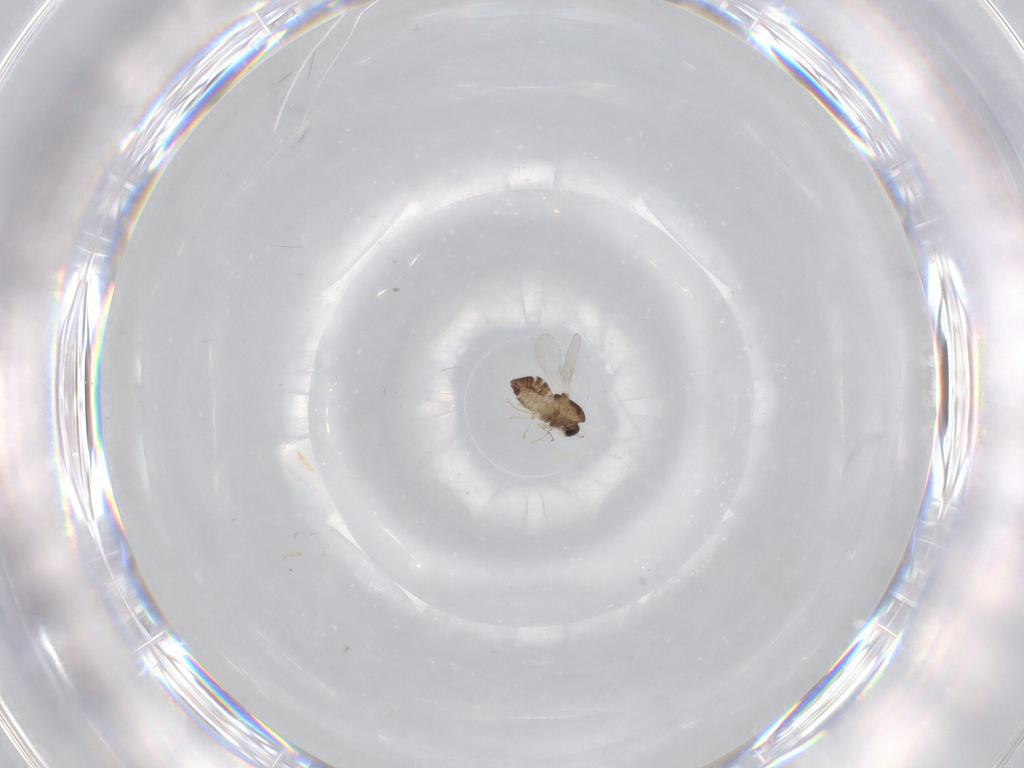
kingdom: Animalia
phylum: Arthropoda
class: Insecta
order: Diptera
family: Chironomidae
